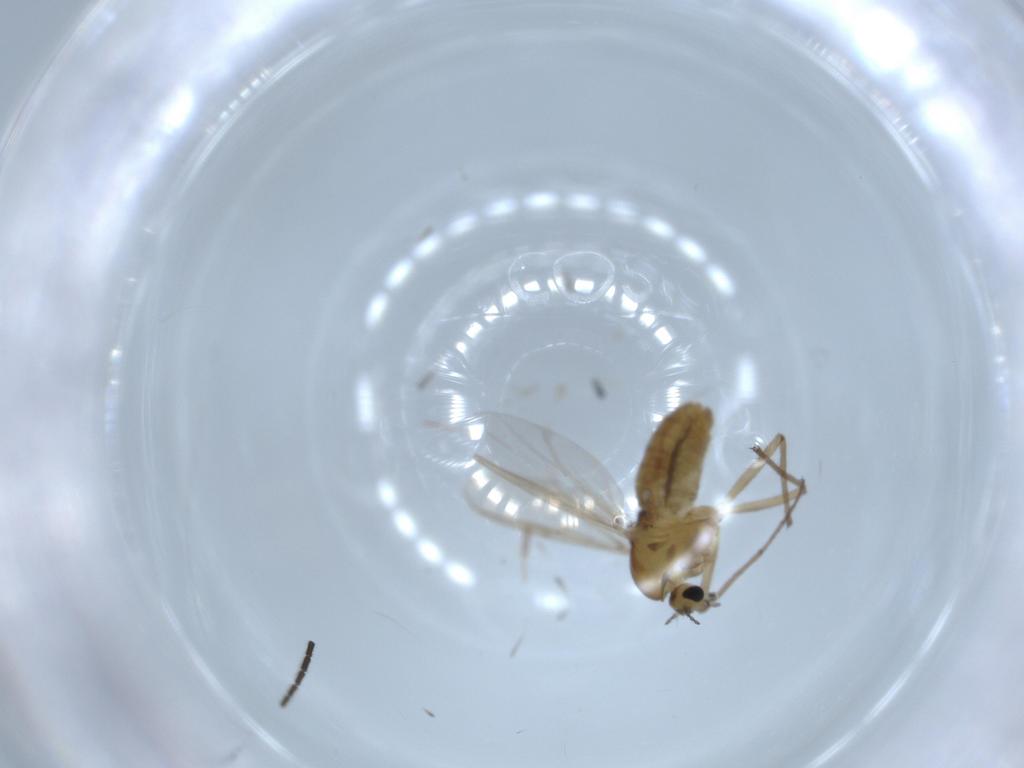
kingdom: Animalia
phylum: Arthropoda
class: Insecta
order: Diptera
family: Chironomidae
